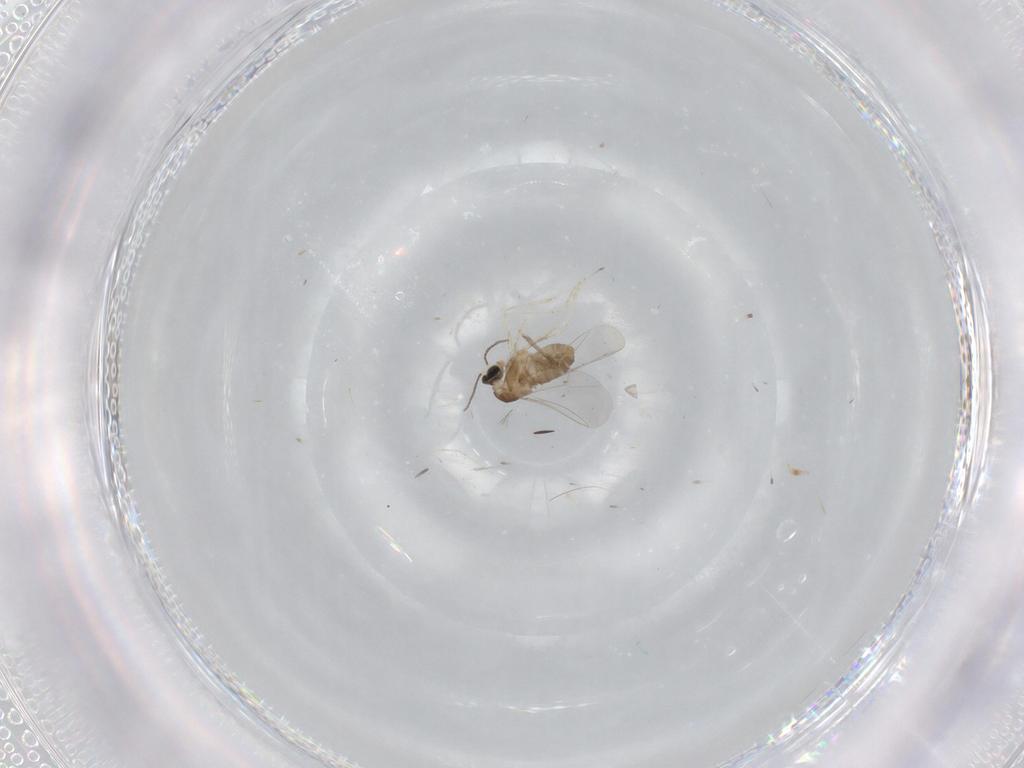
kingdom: Animalia
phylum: Arthropoda
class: Insecta
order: Diptera
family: Cecidomyiidae
